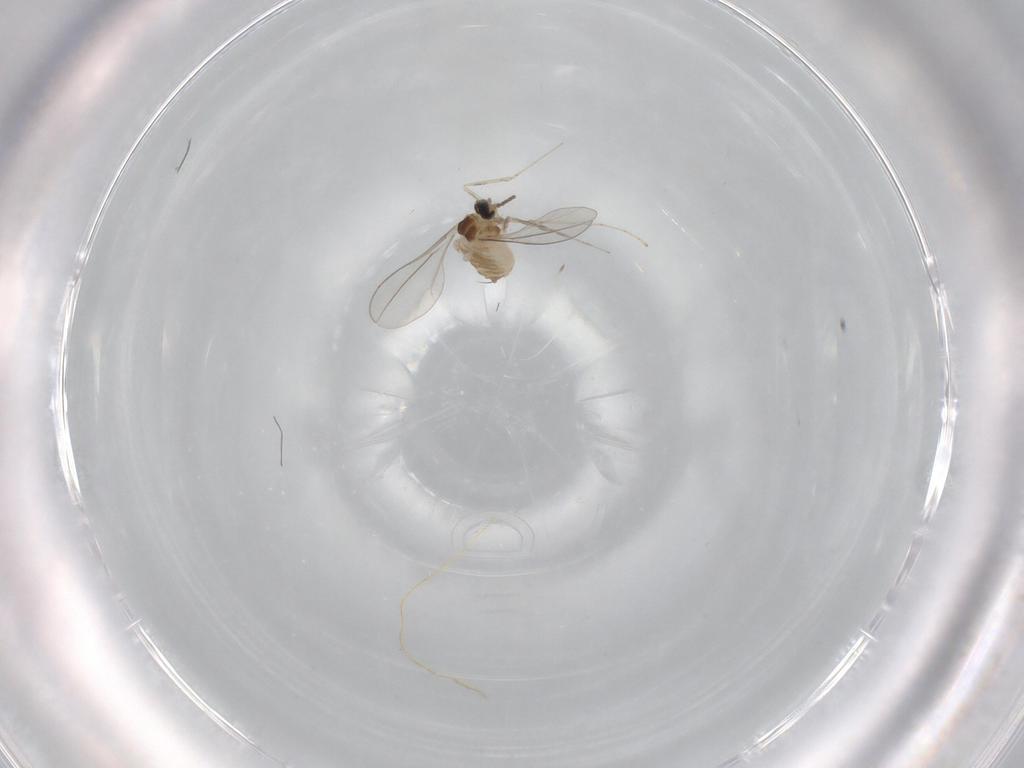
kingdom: Animalia
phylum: Arthropoda
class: Insecta
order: Diptera
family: Cecidomyiidae
